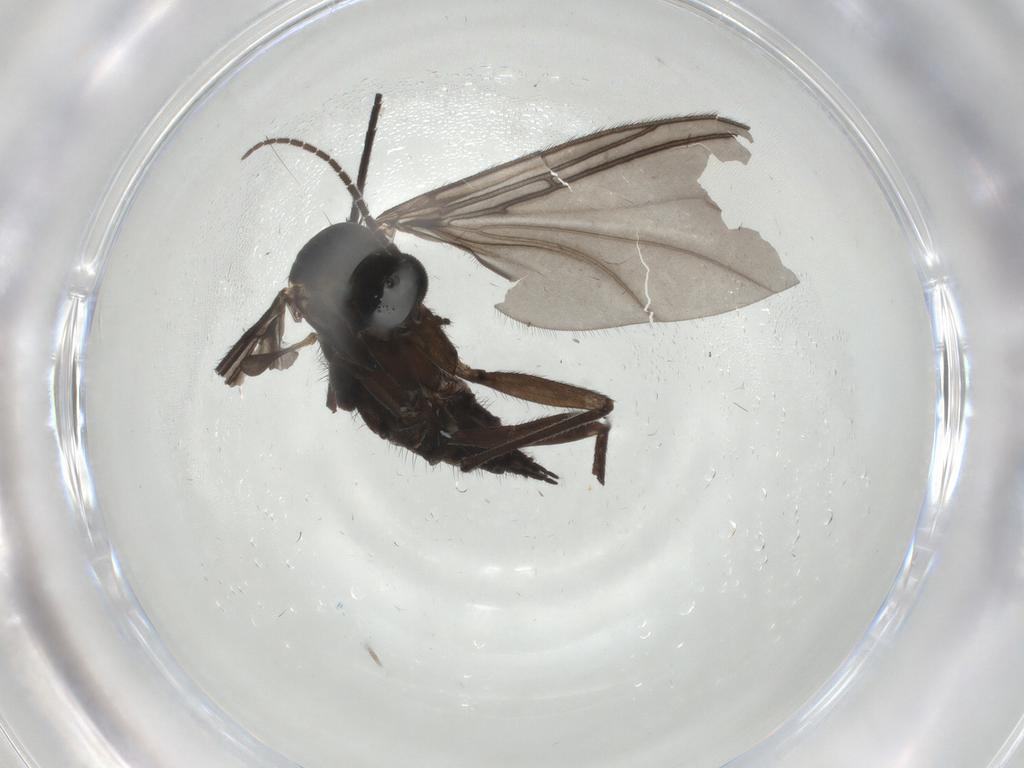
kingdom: Animalia
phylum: Arthropoda
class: Insecta
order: Diptera
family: Sciaridae
